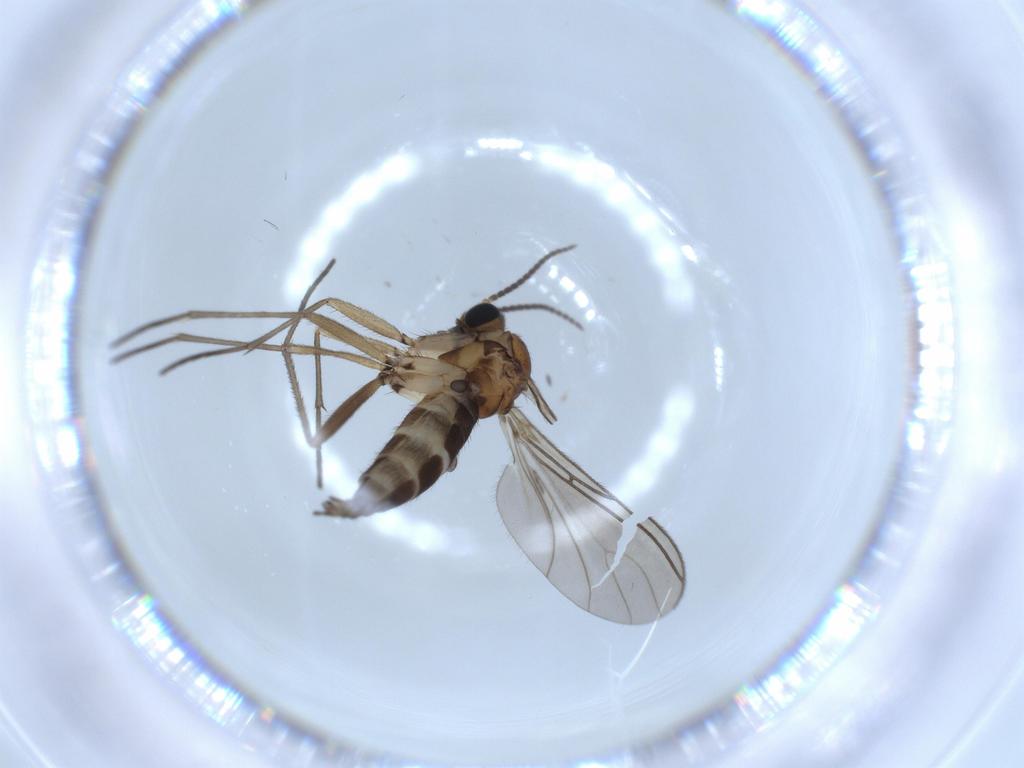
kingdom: Animalia
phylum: Arthropoda
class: Insecta
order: Diptera
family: Sciaridae
